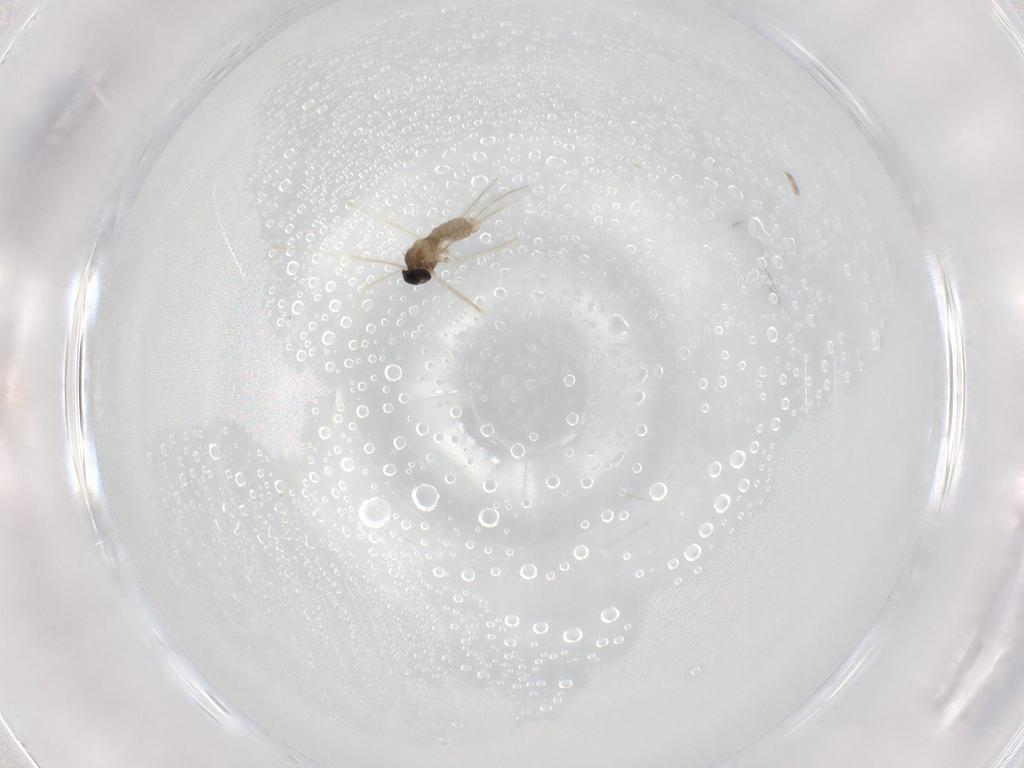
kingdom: Animalia
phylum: Arthropoda
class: Insecta
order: Diptera
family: Cecidomyiidae
